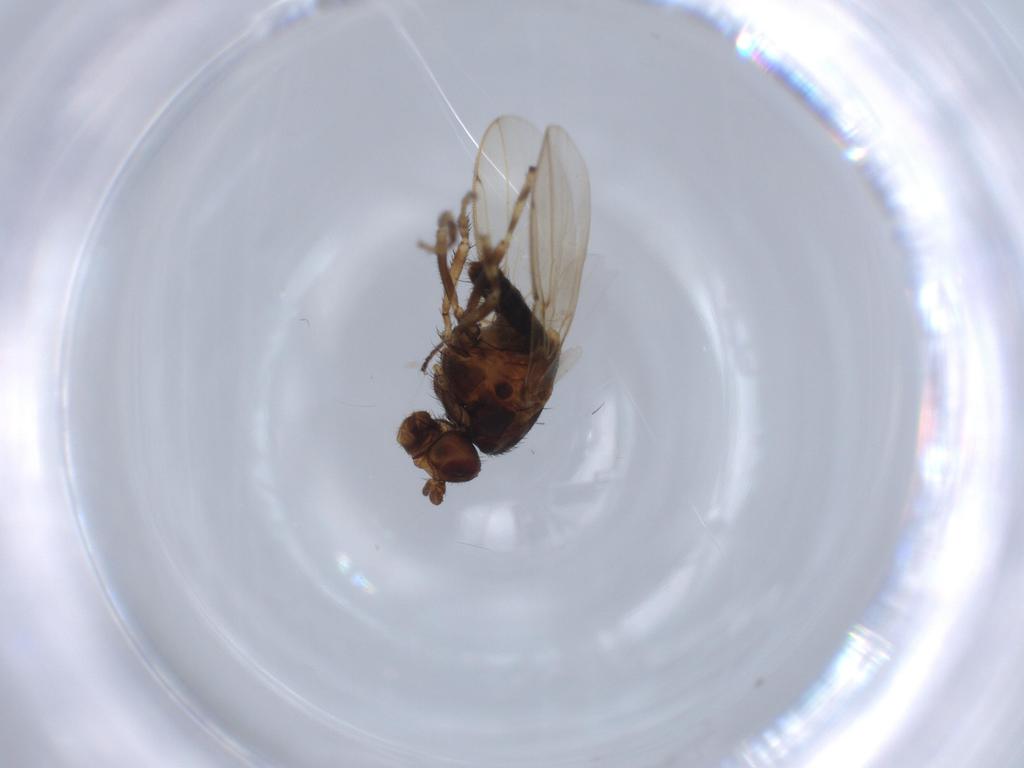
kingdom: Animalia
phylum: Arthropoda
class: Insecta
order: Diptera
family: Sphaeroceridae
